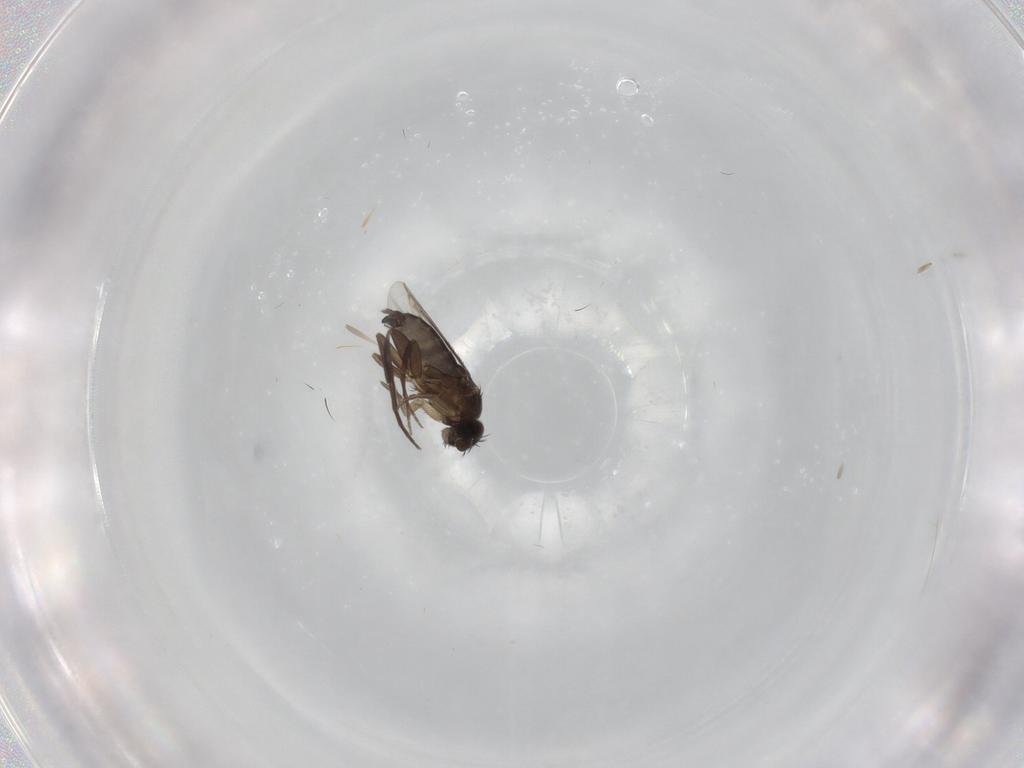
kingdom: Animalia
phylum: Arthropoda
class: Insecta
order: Diptera
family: Phoridae
